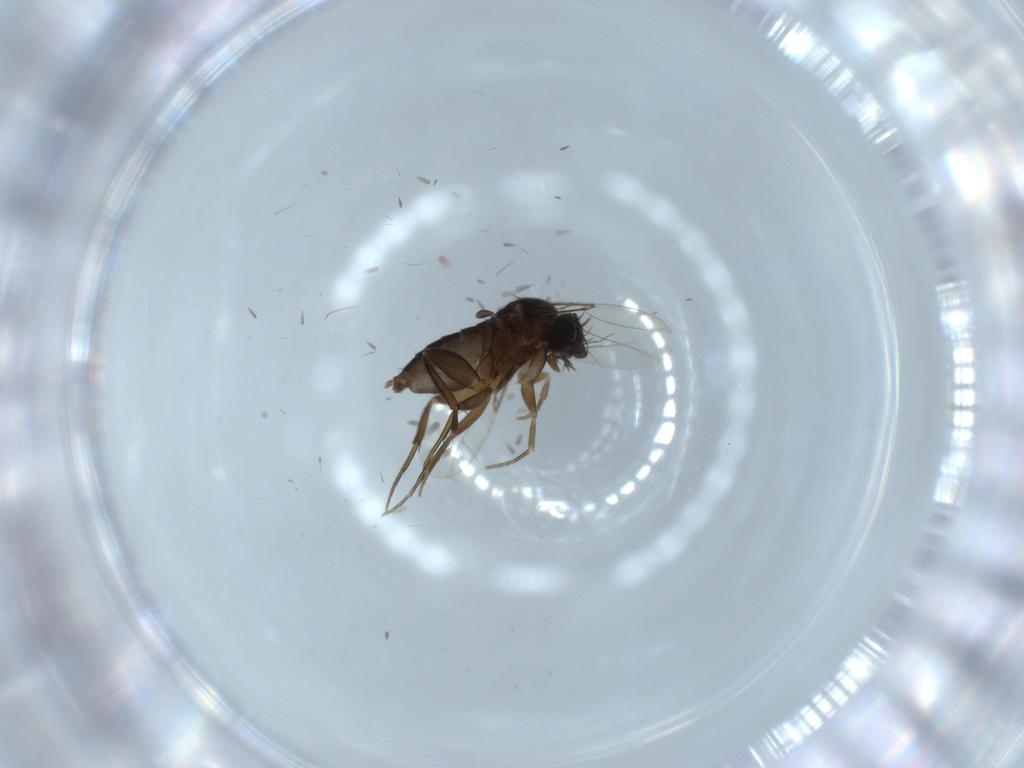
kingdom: Animalia
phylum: Arthropoda
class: Insecta
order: Diptera
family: Phoridae
